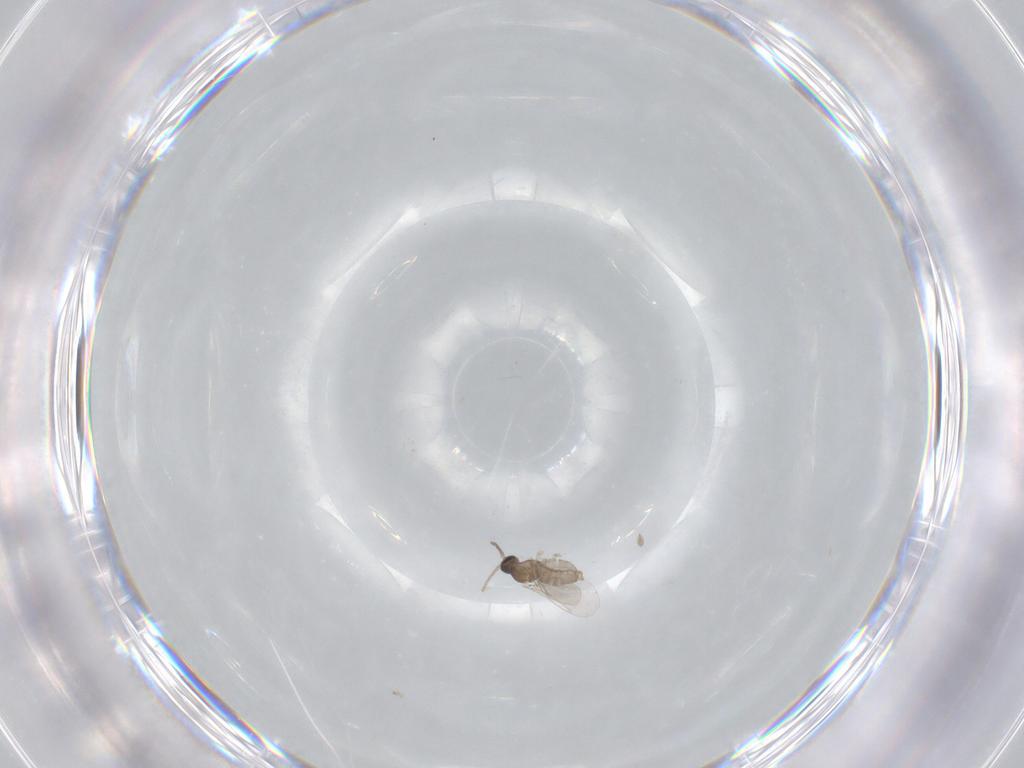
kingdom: Animalia
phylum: Arthropoda
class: Insecta
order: Diptera
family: Cecidomyiidae
